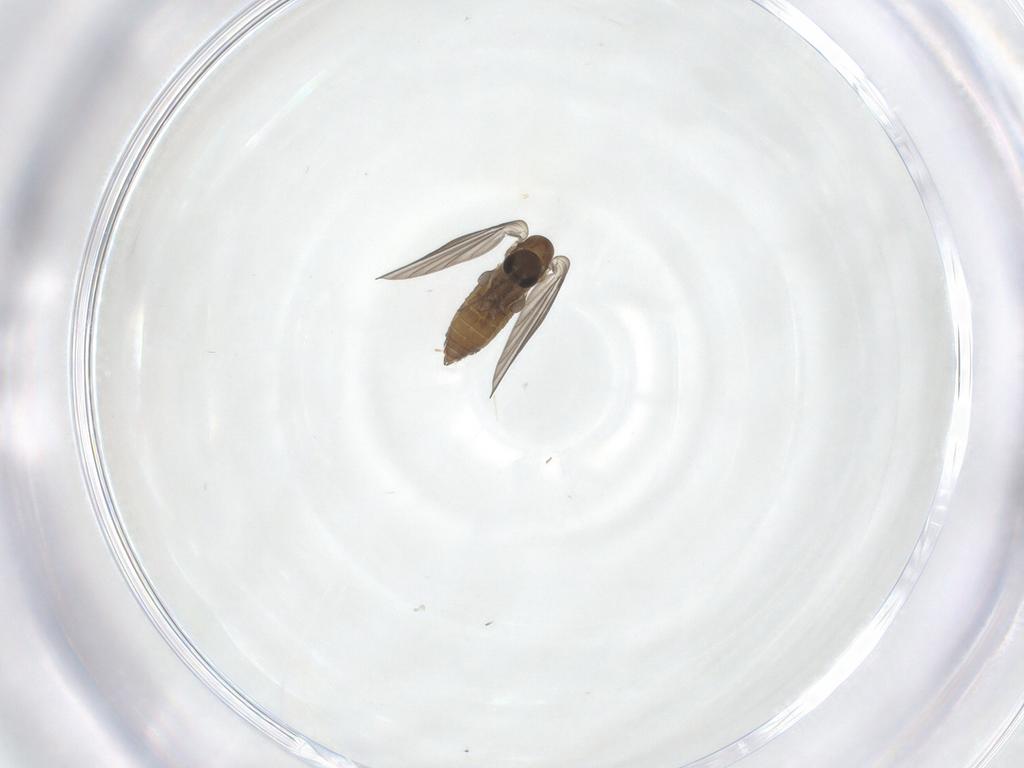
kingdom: Animalia
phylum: Arthropoda
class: Insecta
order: Diptera
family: Psychodidae
